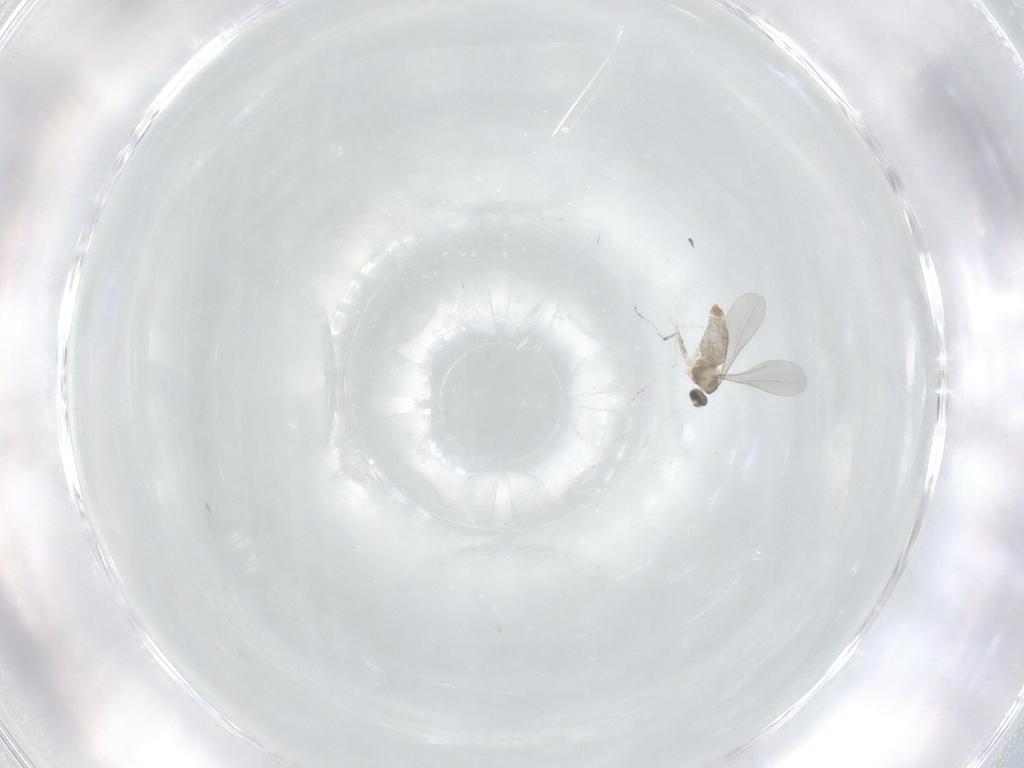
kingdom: Animalia
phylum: Arthropoda
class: Insecta
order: Diptera
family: Cecidomyiidae
